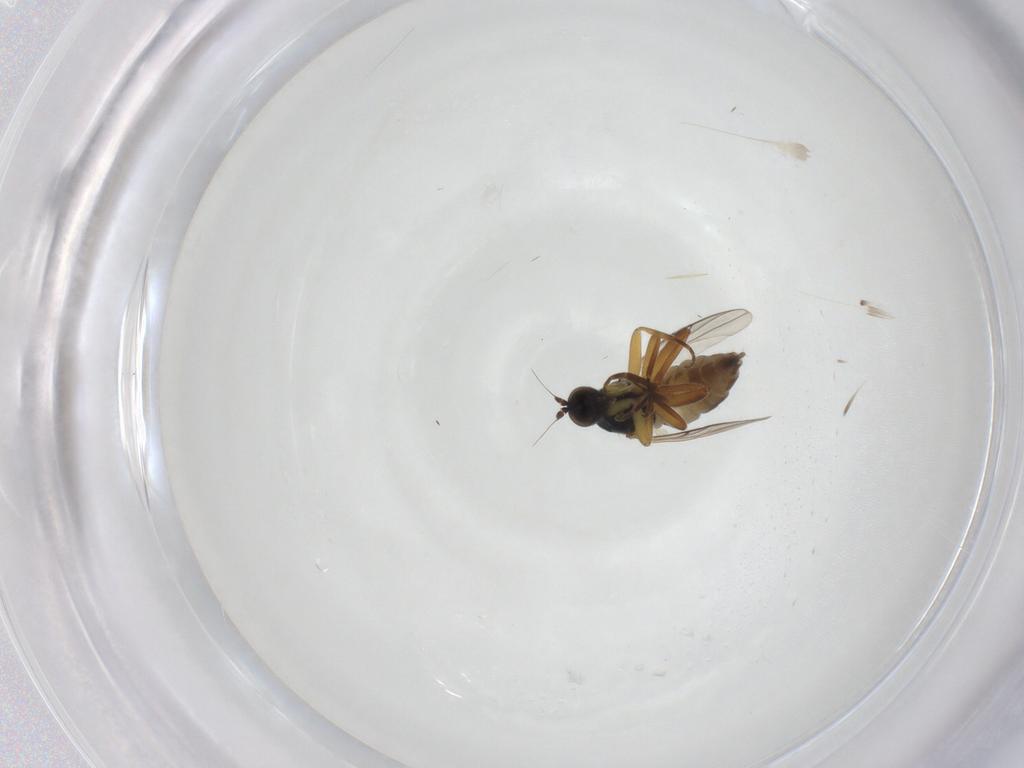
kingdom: Animalia
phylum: Arthropoda
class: Insecta
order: Diptera
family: Hybotidae
